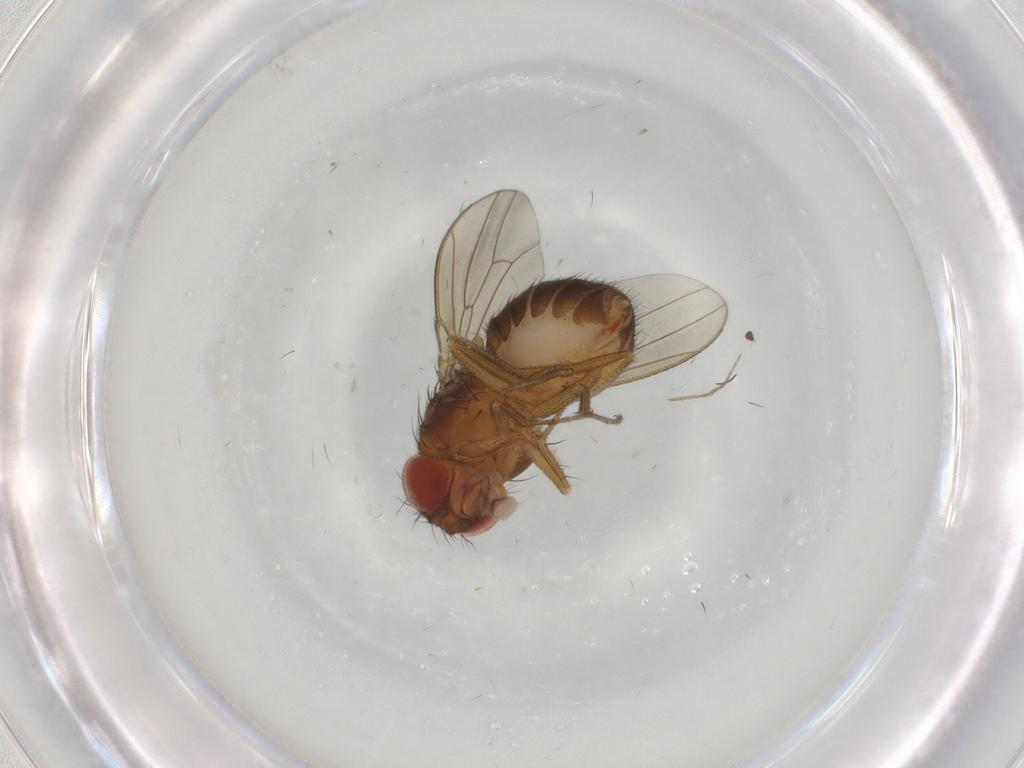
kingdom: Animalia
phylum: Arthropoda
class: Insecta
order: Diptera
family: Drosophilidae
